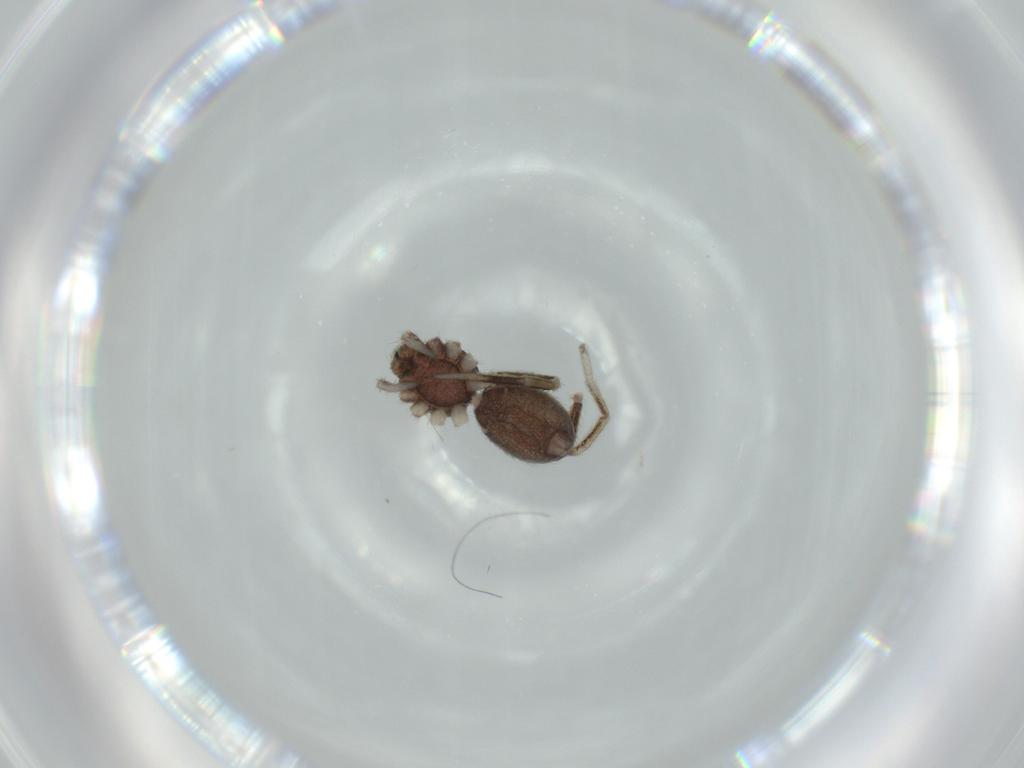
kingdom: Animalia
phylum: Arthropoda
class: Arachnida
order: Araneae
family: Corinnidae
